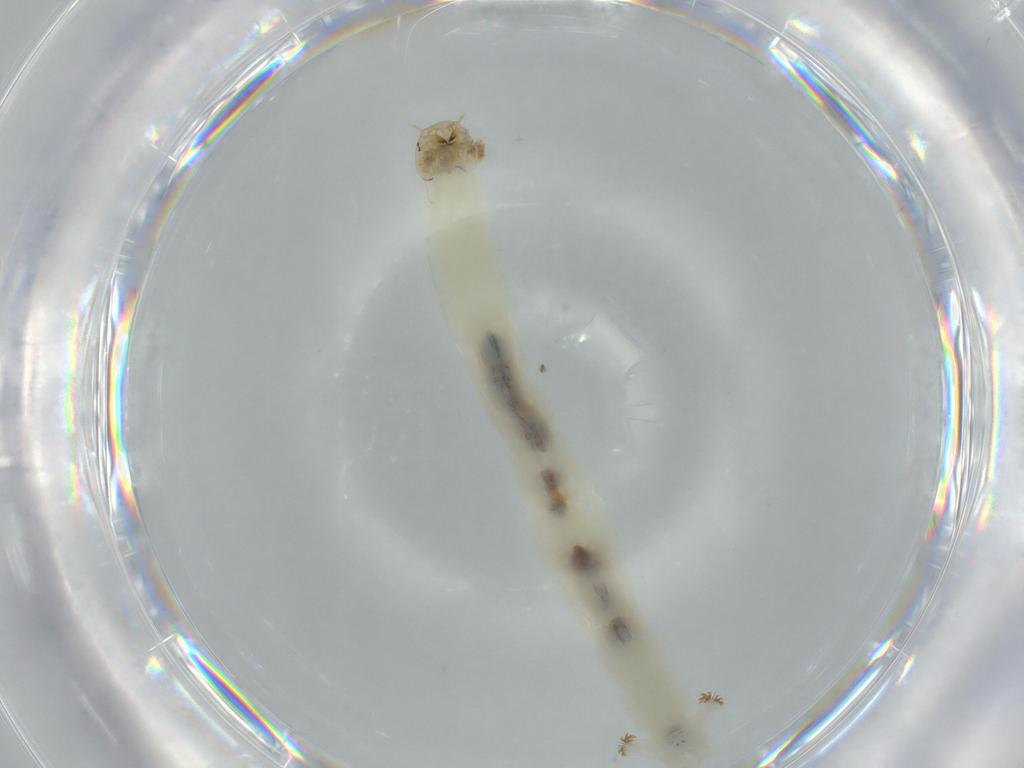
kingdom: Animalia
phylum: Arthropoda
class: Insecta
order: Diptera
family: Chironomidae
